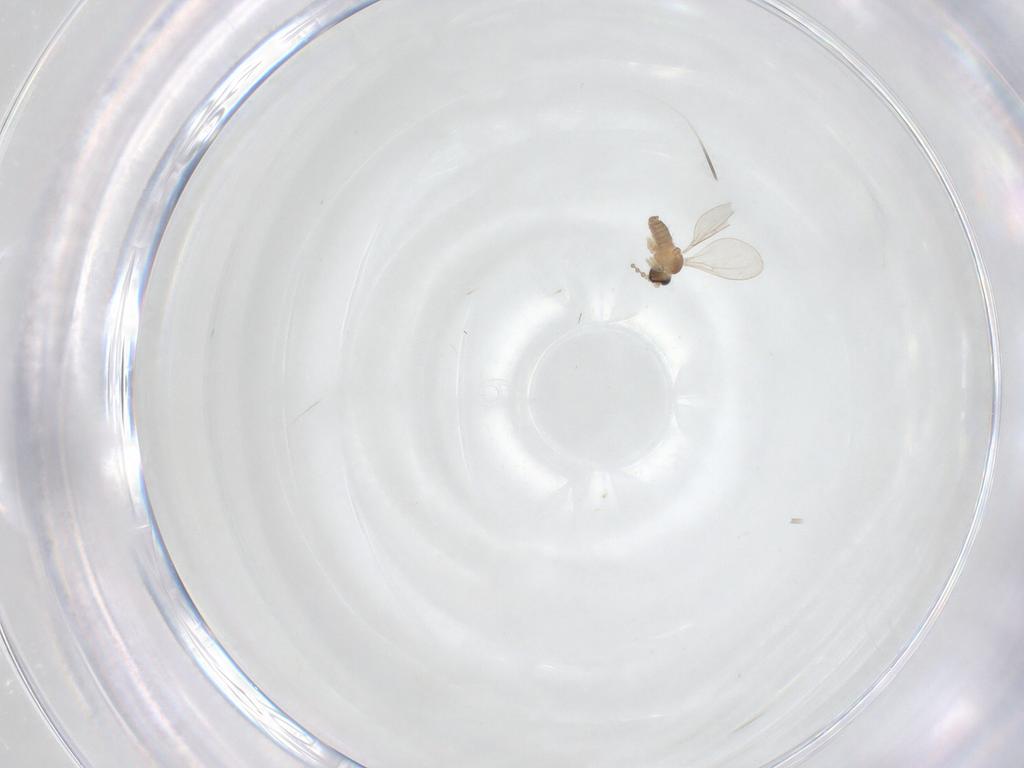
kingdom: Animalia
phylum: Arthropoda
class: Insecta
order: Diptera
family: Cecidomyiidae
